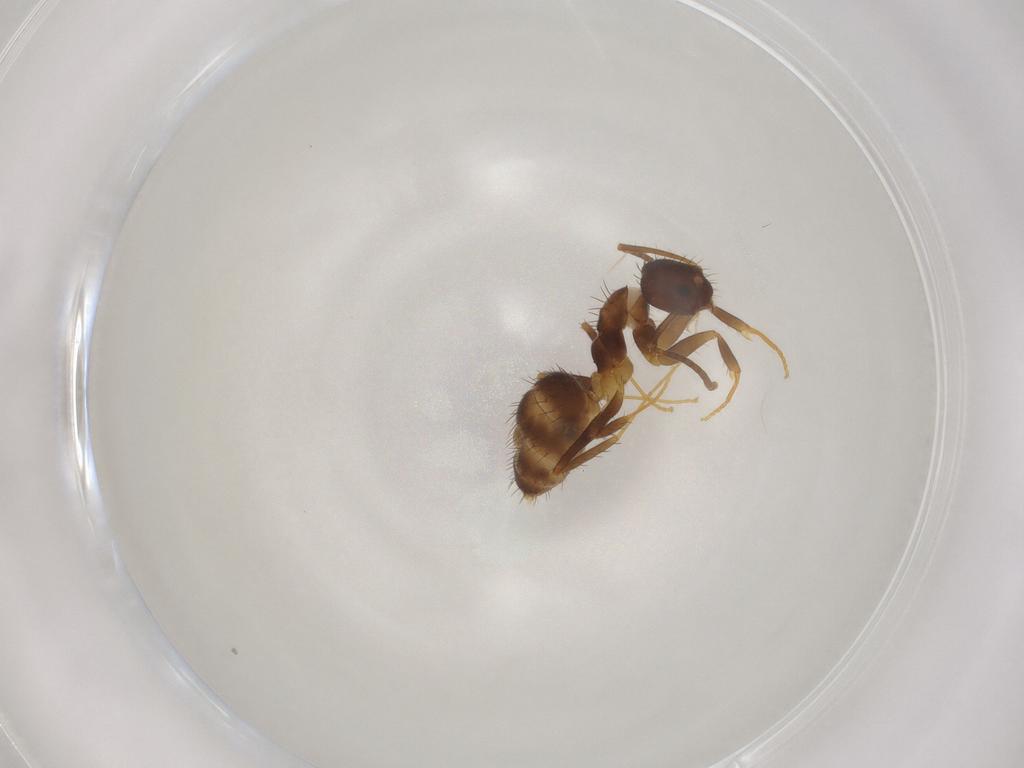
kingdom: Animalia
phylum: Arthropoda
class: Insecta
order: Hymenoptera
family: Formicidae
